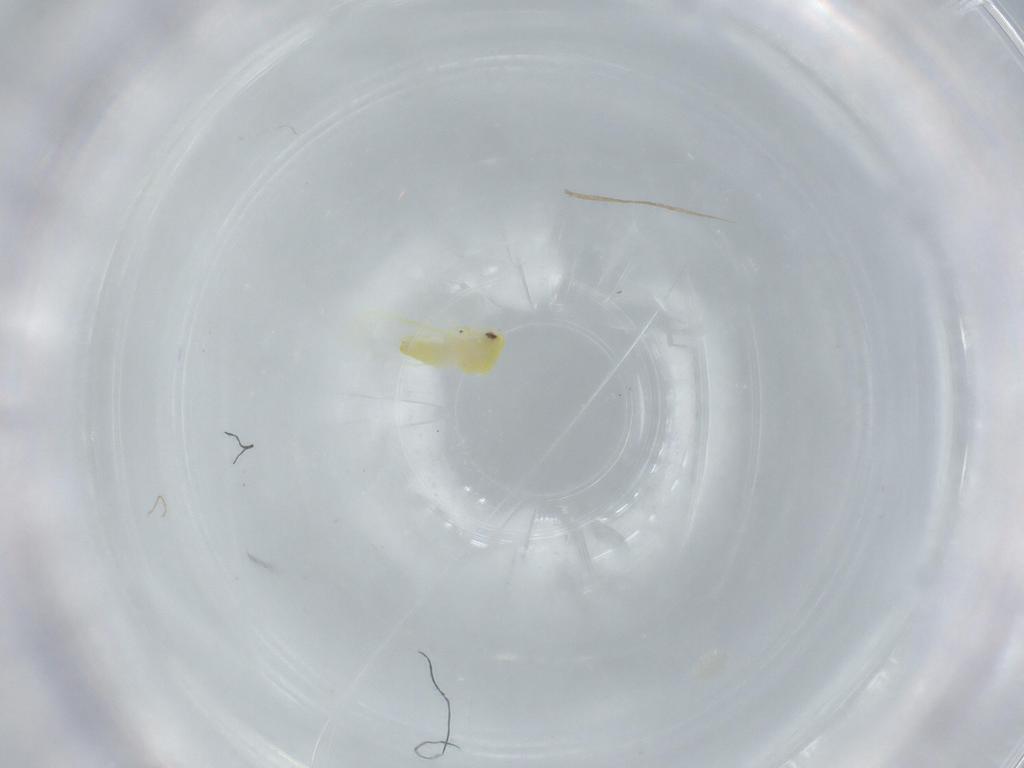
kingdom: Animalia
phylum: Arthropoda
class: Insecta
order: Hemiptera
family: Aleyrodidae
